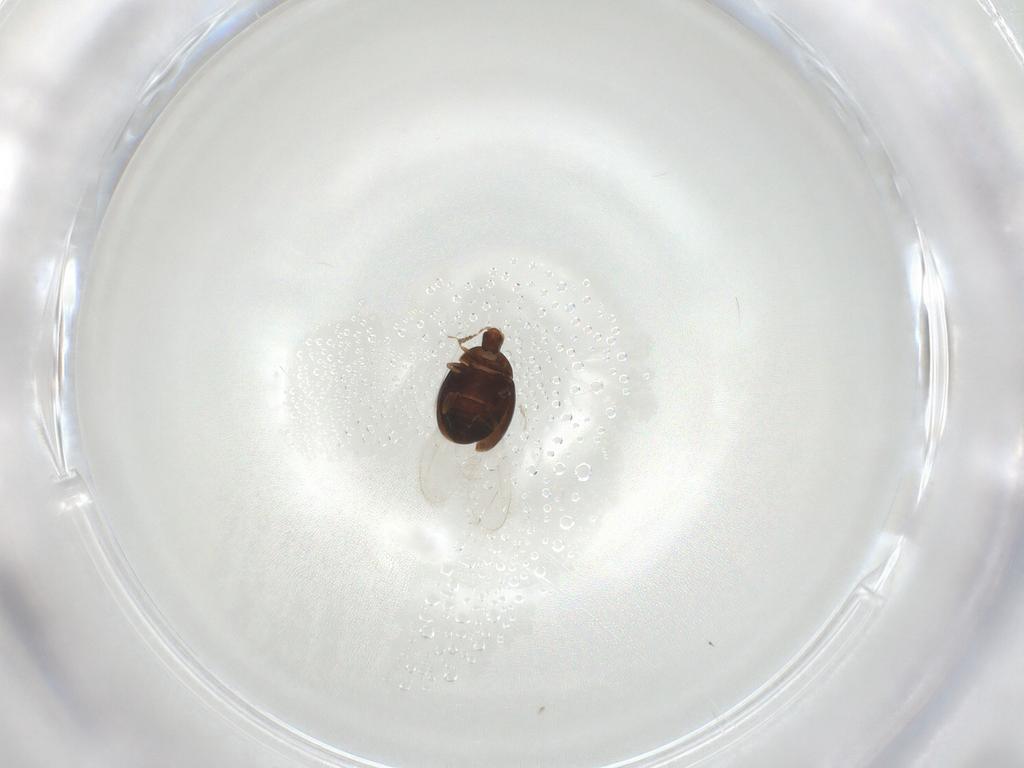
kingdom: Animalia
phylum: Arthropoda
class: Insecta
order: Coleoptera
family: Corylophidae
